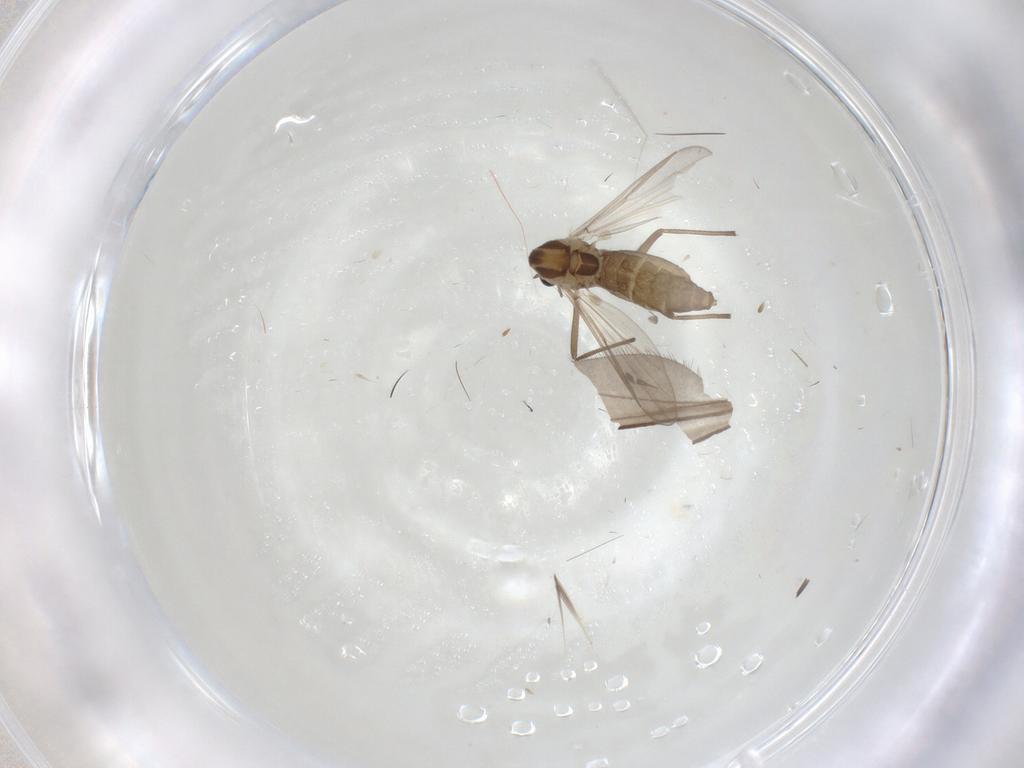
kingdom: Animalia
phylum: Arthropoda
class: Insecta
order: Diptera
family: Chironomidae
